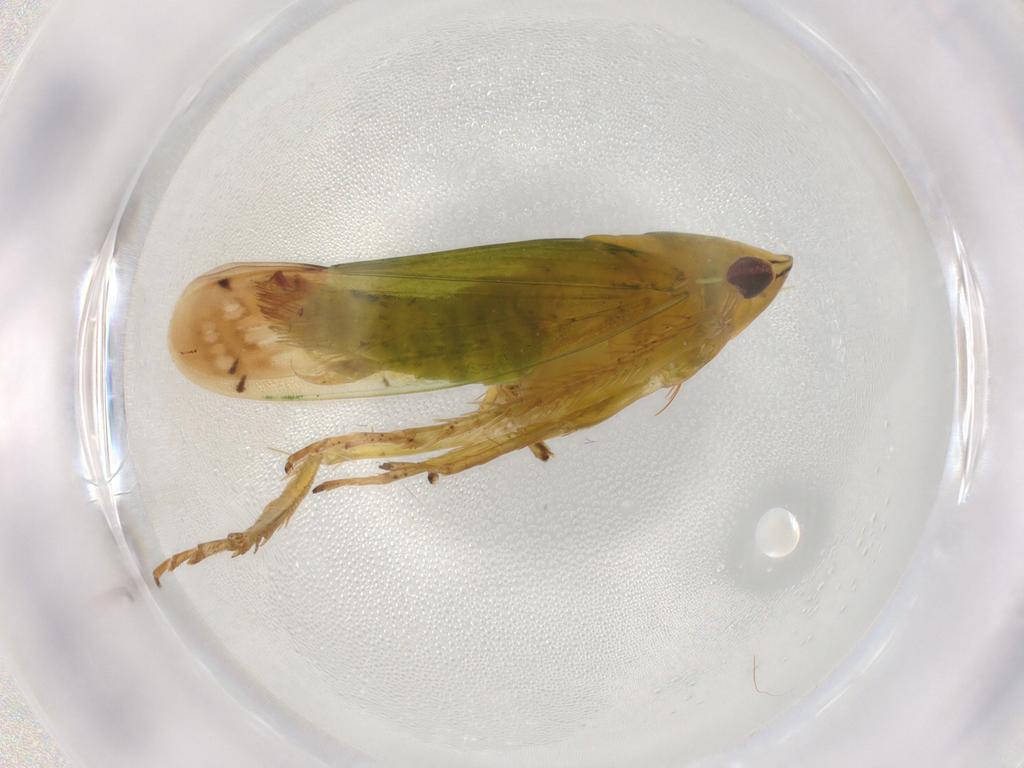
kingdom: Animalia
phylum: Arthropoda
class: Insecta
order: Hemiptera
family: Cicadellidae
